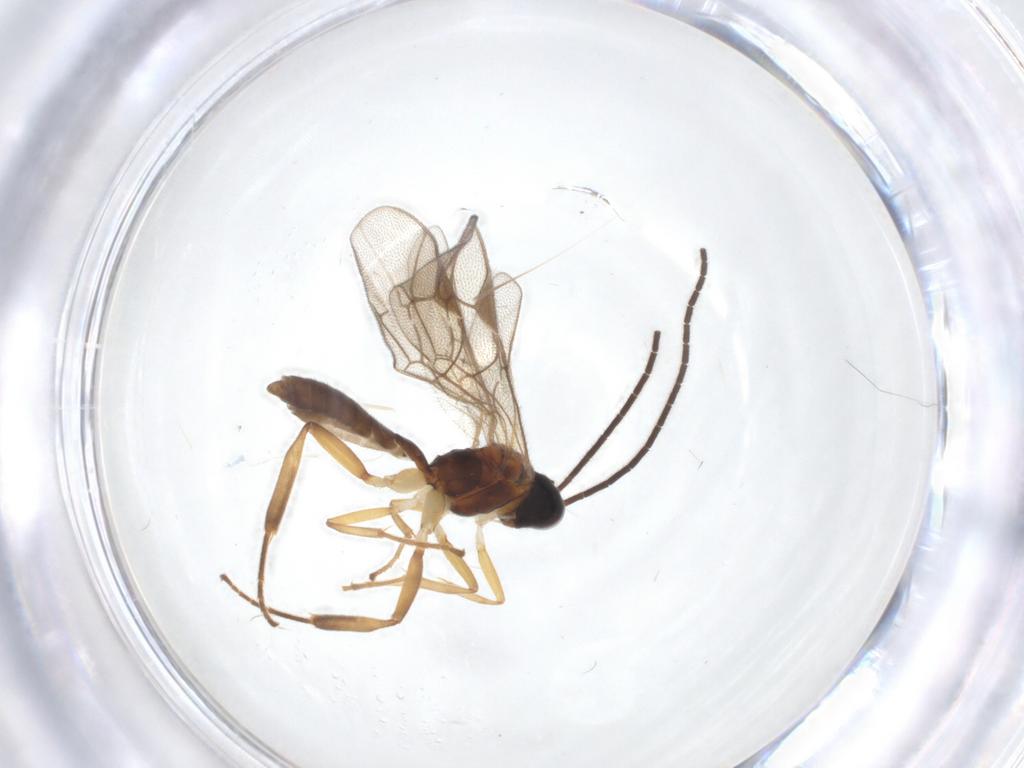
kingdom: Animalia
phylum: Arthropoda
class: Insecta
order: Hymenoptera
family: Ichneumonidae
